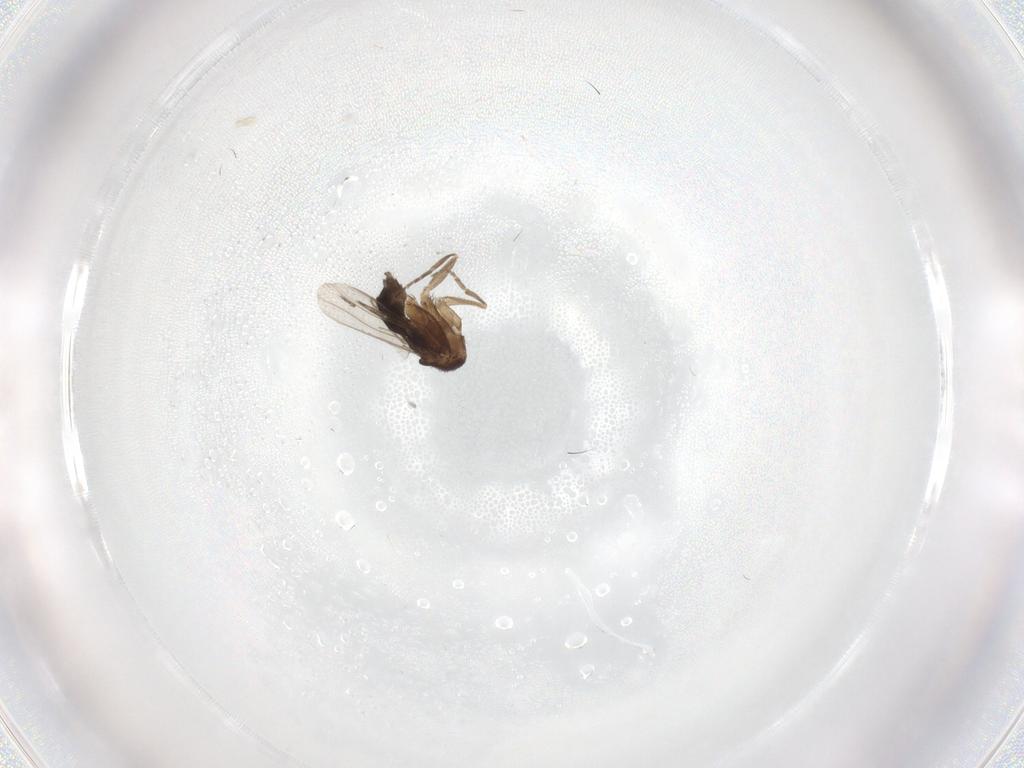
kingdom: Animalia
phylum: Arthropoda
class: Insecta
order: Diptera
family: Phoridae
